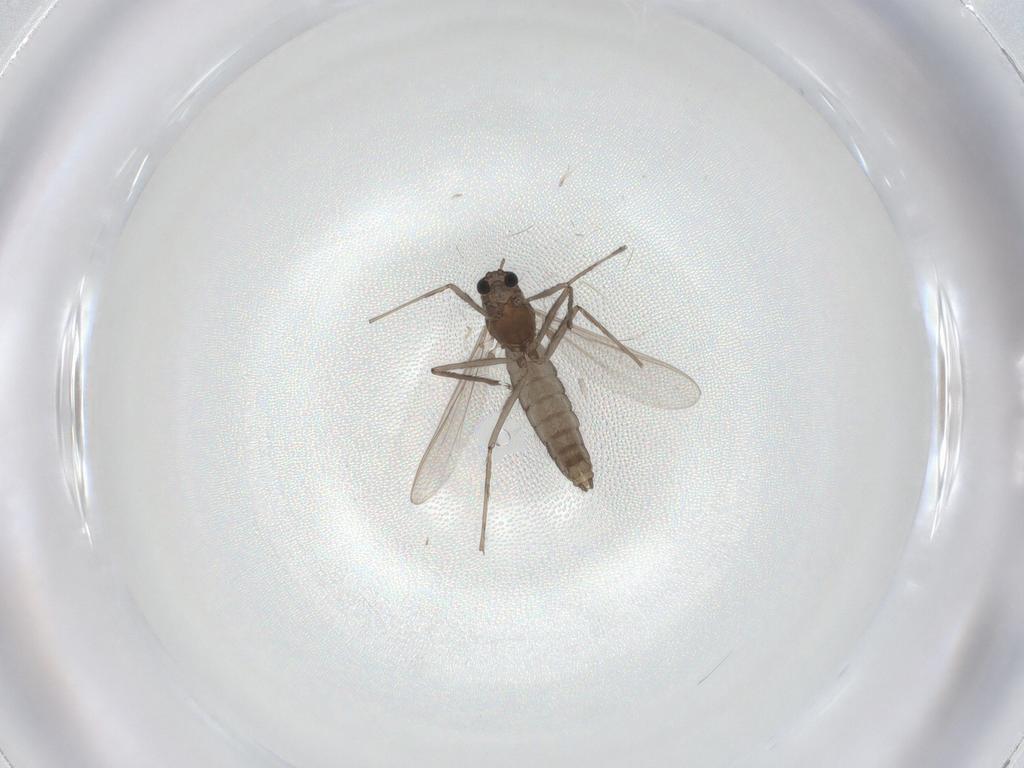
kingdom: Animalia
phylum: Arthropoda
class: Insecta
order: Diptera
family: Chironomidae
